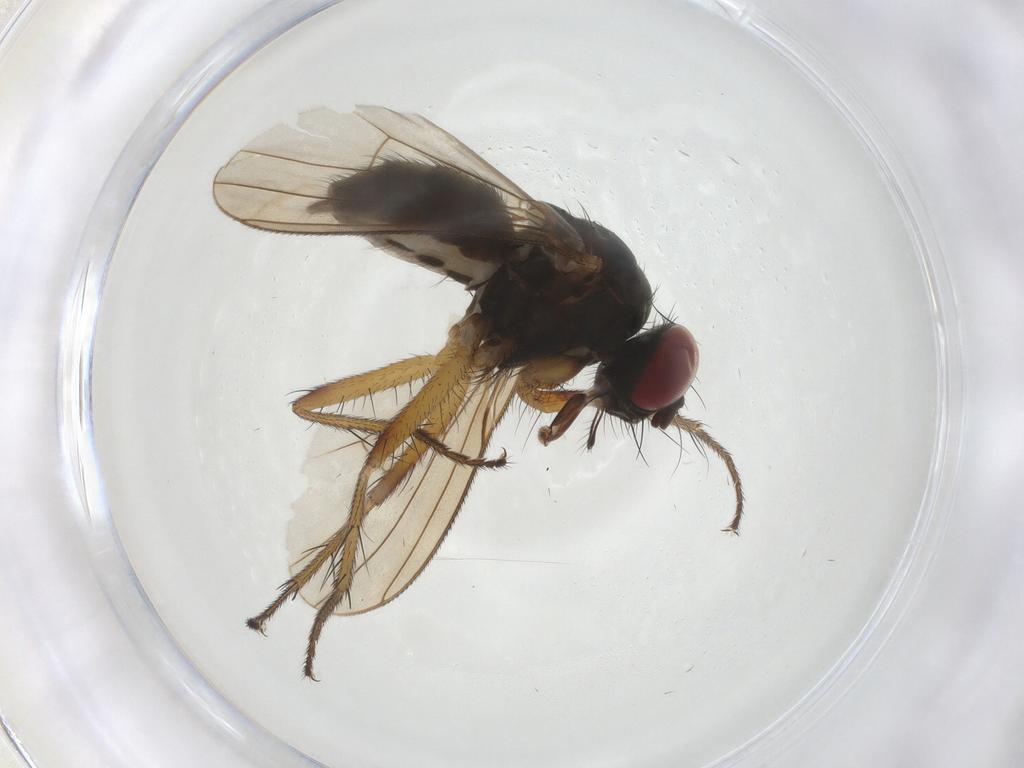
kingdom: Animalia
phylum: Arthropoda
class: Insecta
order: Diptera
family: Muscidae
